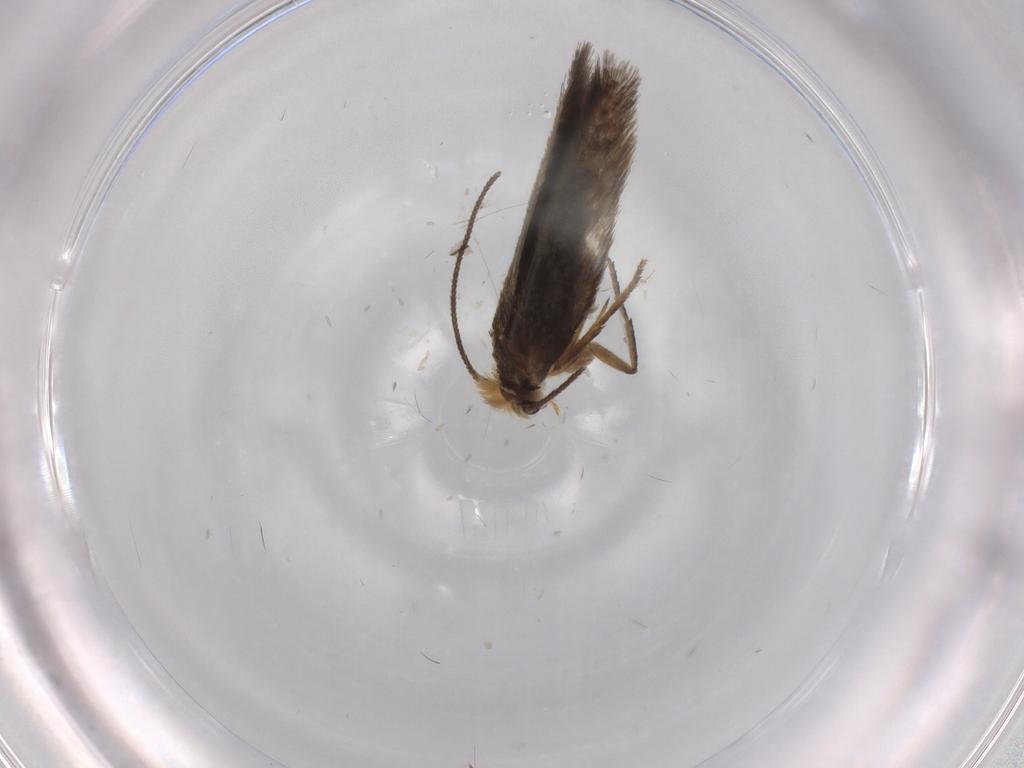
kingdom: Animalia
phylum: Arthropoda
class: Insecta
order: Lepidoptera
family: Nepticulidae
